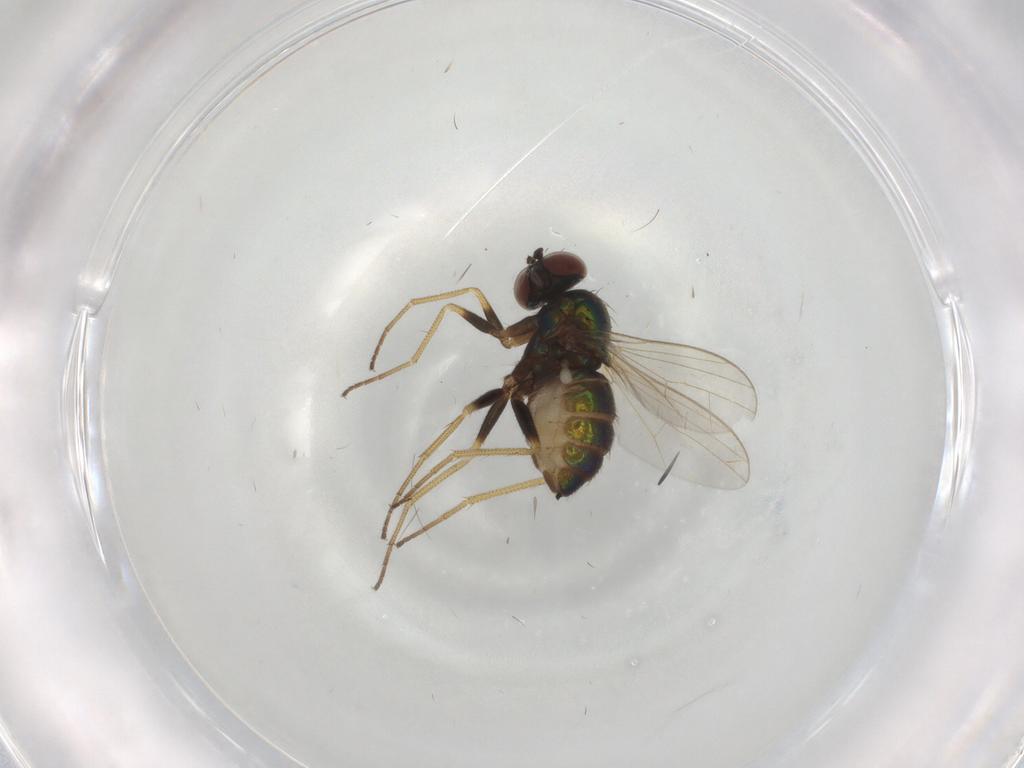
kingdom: Animalia
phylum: Arthropoda
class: Insecta
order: Diptera
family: Dolichopodidae
